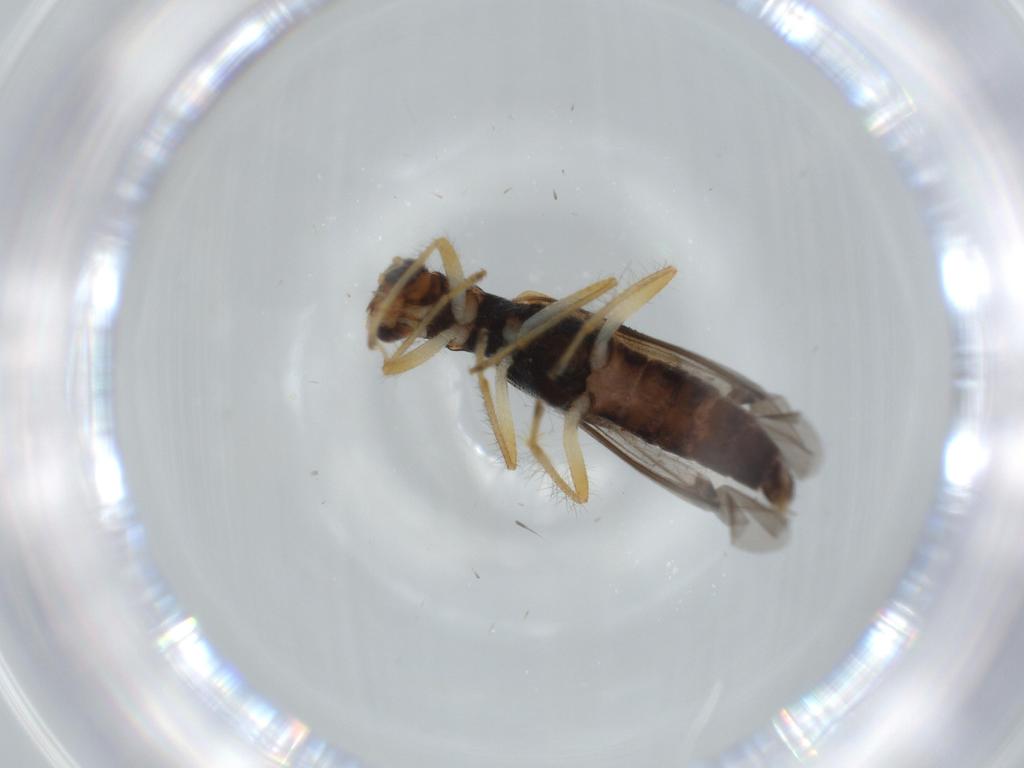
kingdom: Animalia
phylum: Arthropoda
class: Insecta
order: Coleoptera
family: Cleridae
